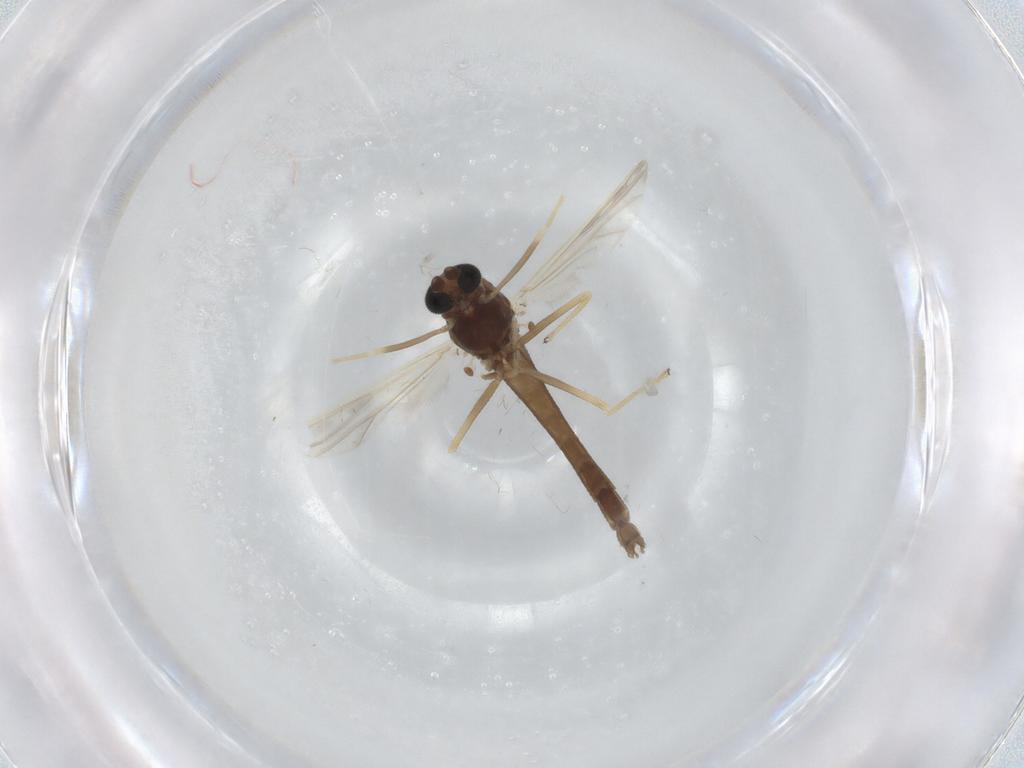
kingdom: Animalia
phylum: Arthropoda
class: Insecta
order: Diptera
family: Chironomidae
